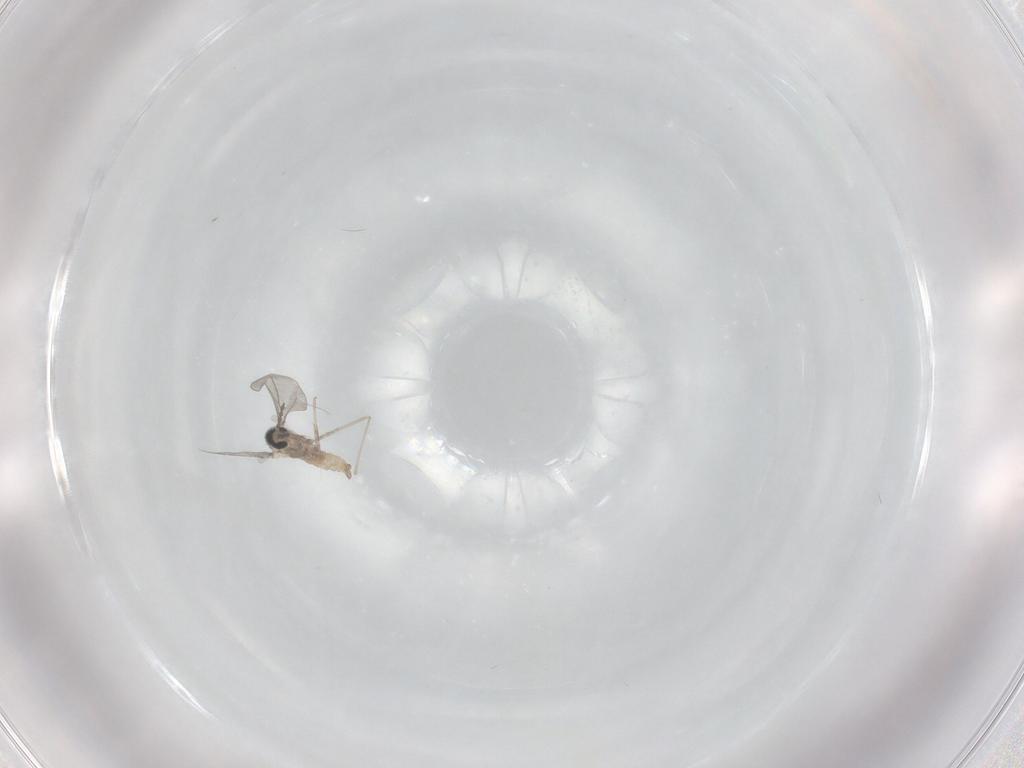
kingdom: Animalia
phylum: Arthropoda
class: Insecta
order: Diptera
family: Cecidomyiidae
